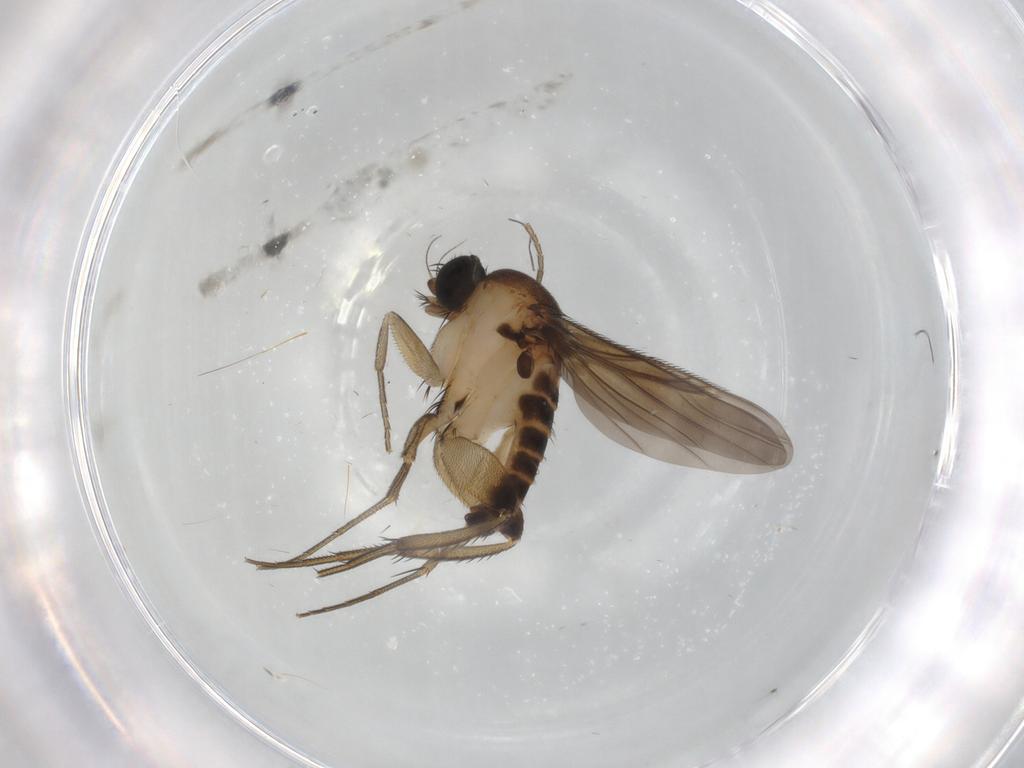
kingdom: Animalia
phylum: Arthropoda
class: Insecta
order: Diptera
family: Phoridae
